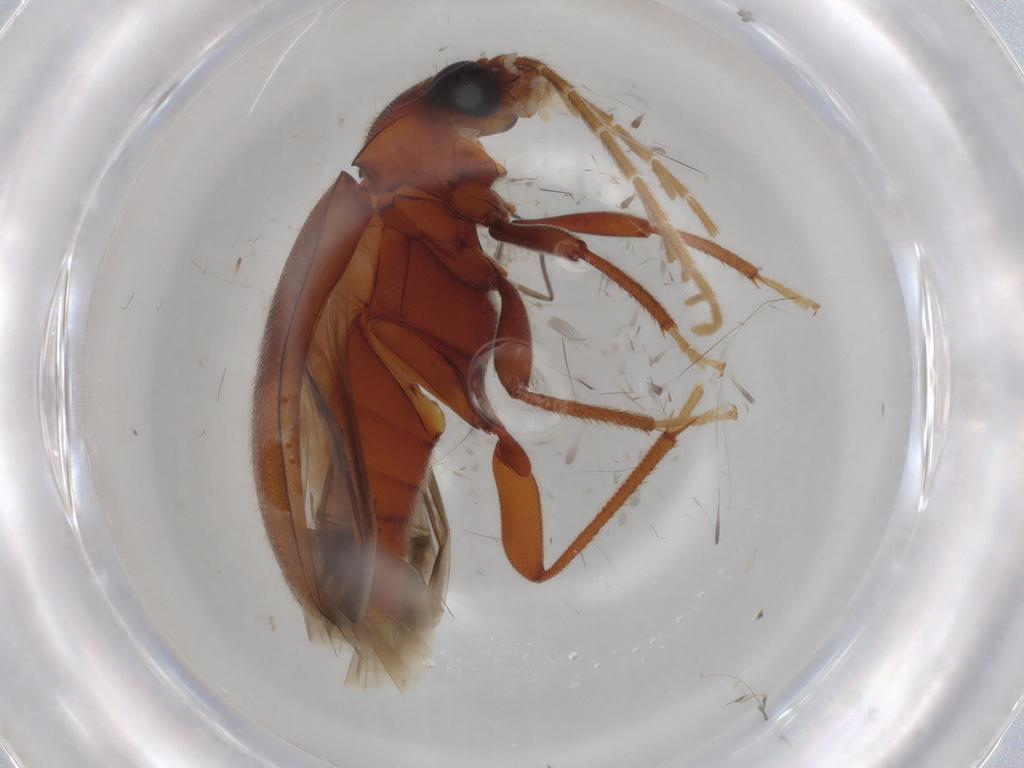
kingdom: Animalia
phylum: Arthropoda
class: Insecta
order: Coleoptera
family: Ptilodactylidae
